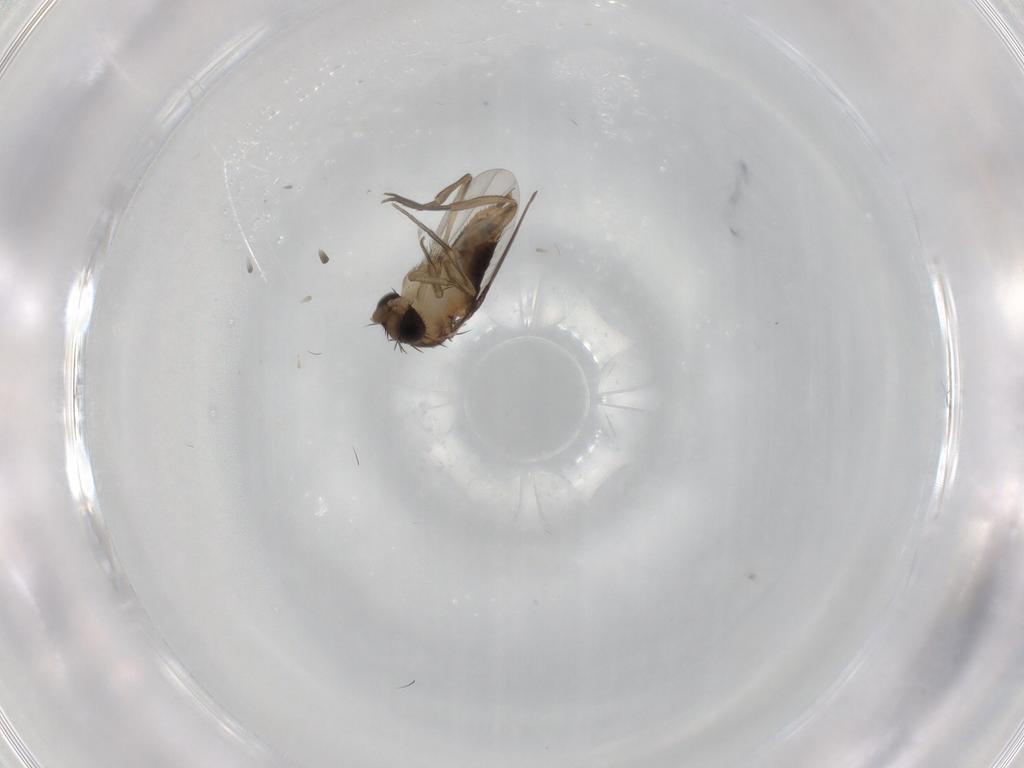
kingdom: Animalia
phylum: Arthropoda
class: Insecta
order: Diptera
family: Phoridae
